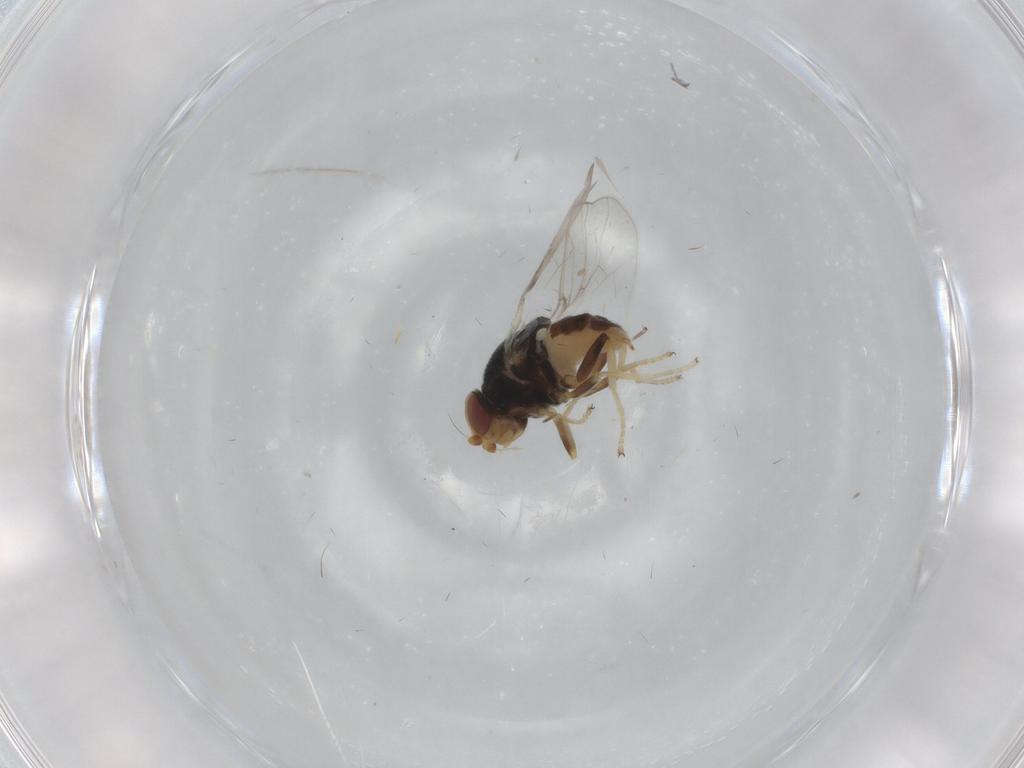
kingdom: Animalia
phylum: Arthropoda
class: Insecta
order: Diptera
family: Chloropidae
